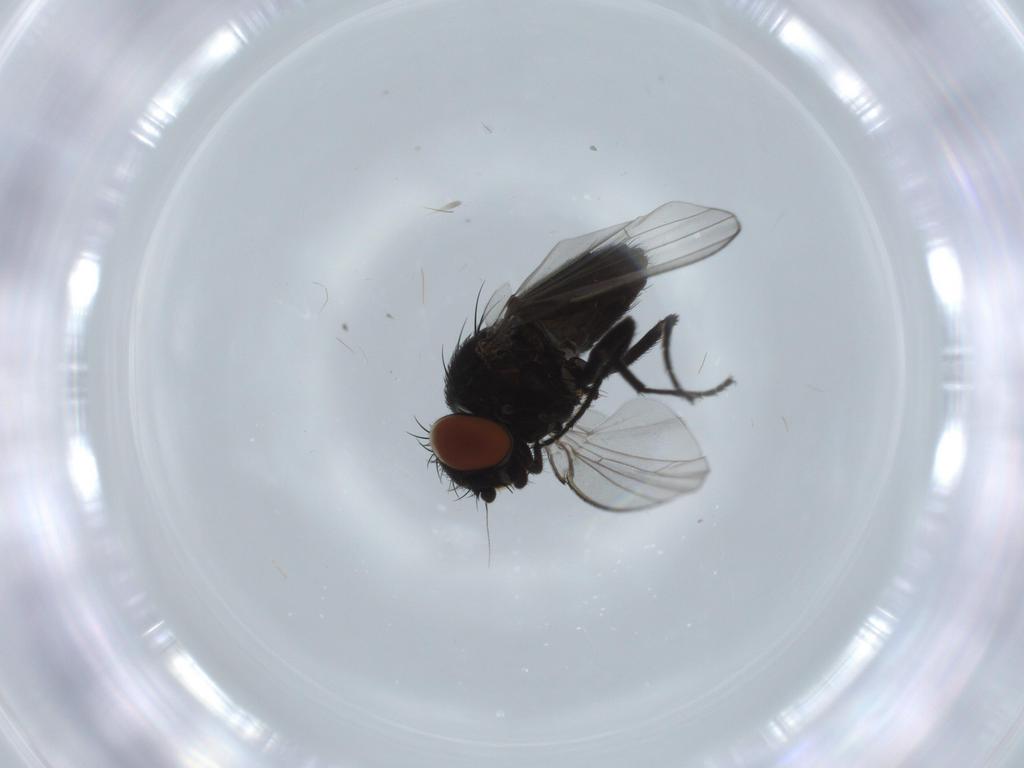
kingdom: Animalia
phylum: Arthropoda
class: Insecta
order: Diptera
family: Milichiidae
